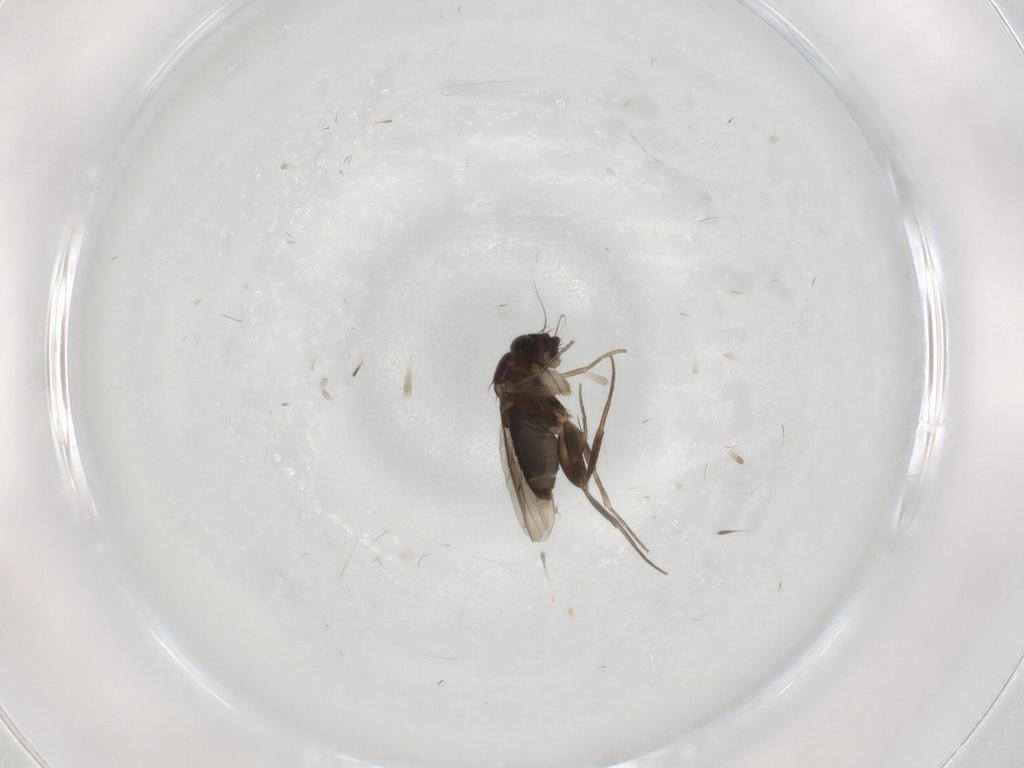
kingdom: Animalia
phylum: Arthropoda
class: Insecta
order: Diptera
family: Phoridae
